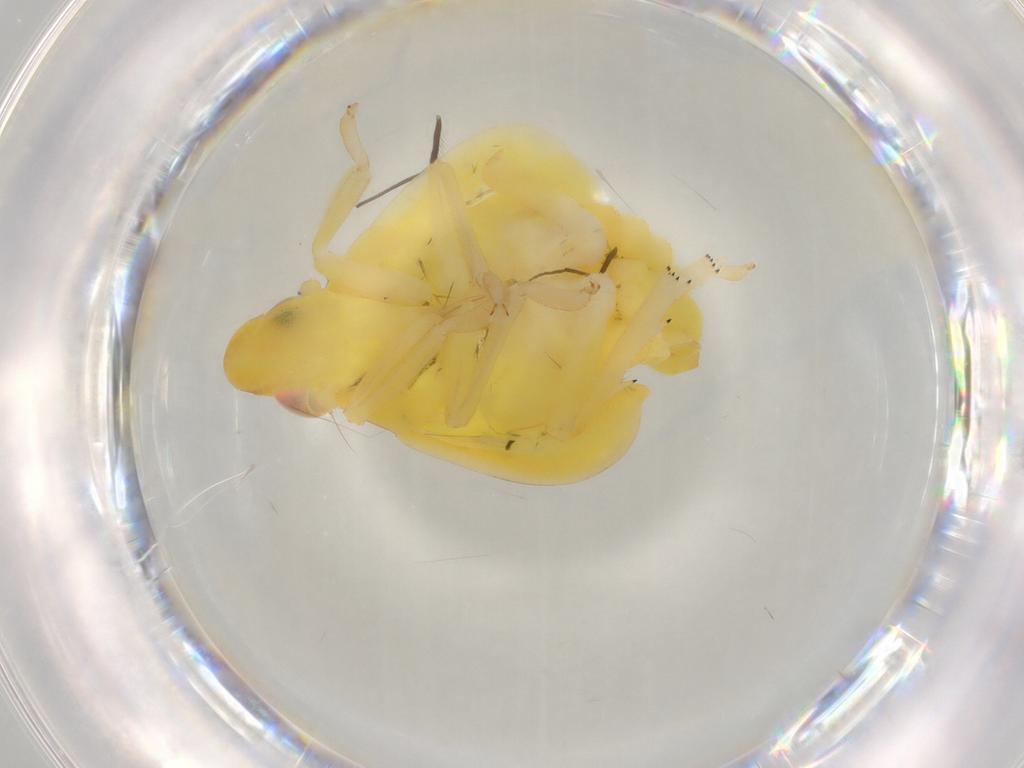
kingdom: Animalia
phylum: Arthropoda
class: Insecta
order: Hemiptera
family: Tropiduchidae
